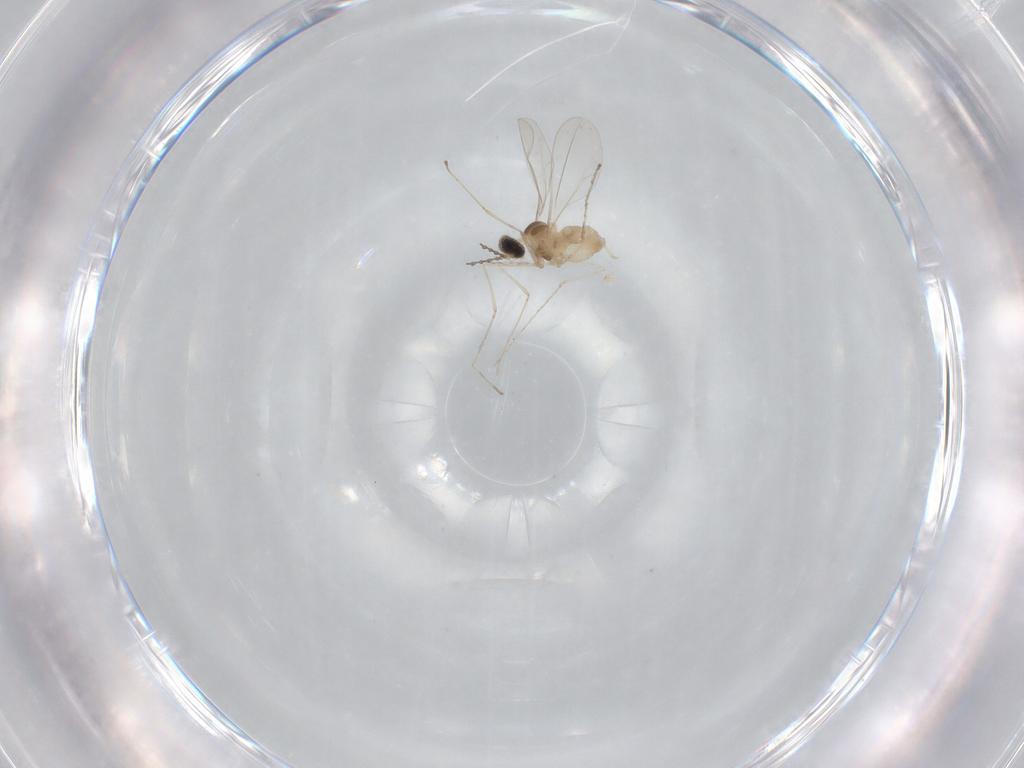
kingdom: Animalia
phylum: Arthropoda
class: Insecta
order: Diptera
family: Cecidomyiidae
